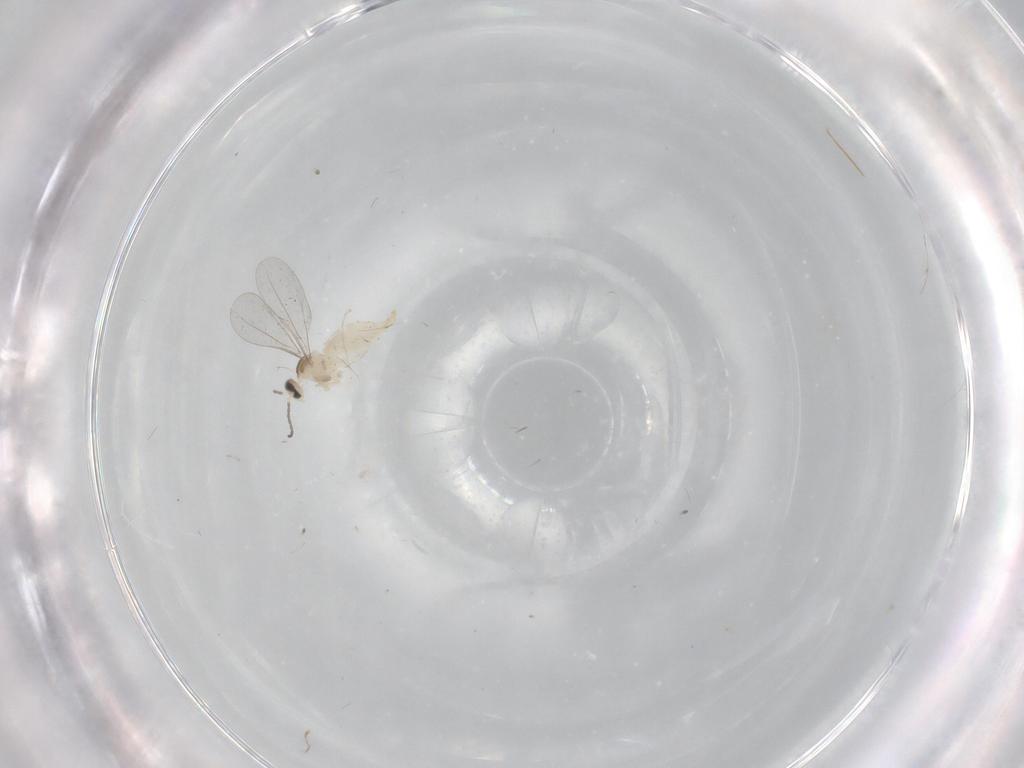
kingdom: Animalia
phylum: Arthropoda
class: Insecta
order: Diptera
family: Cecidomyiidae
